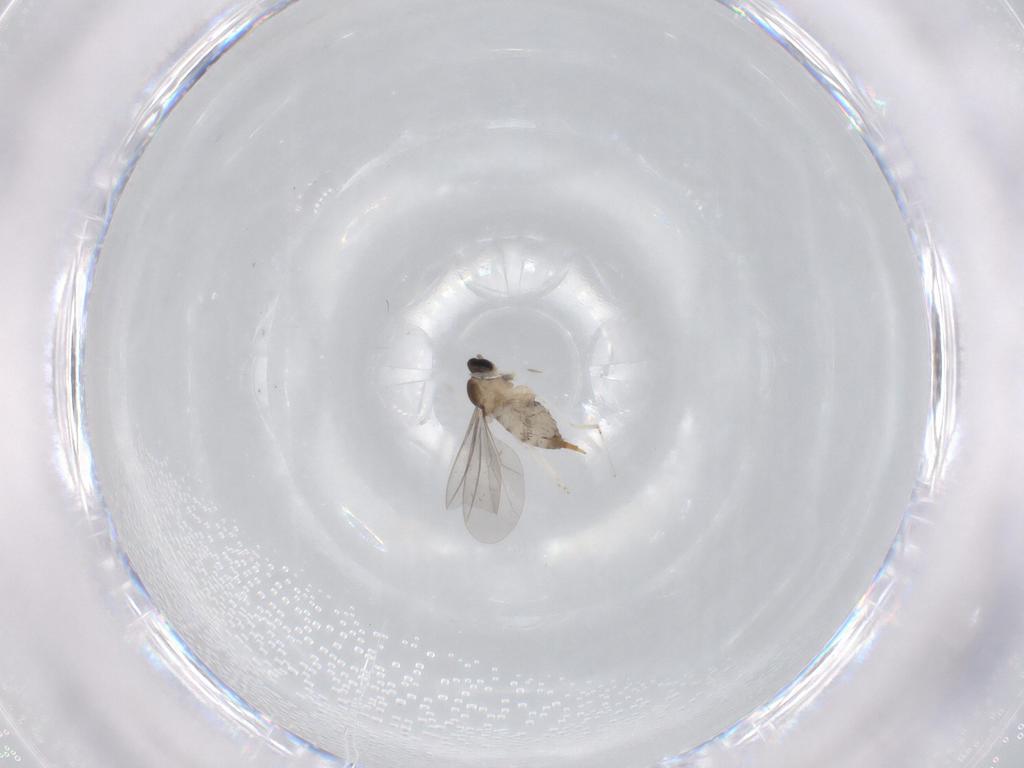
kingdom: Animalia
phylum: Arthropoda
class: Insecta
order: Diptera
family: Cecidomyiidae
